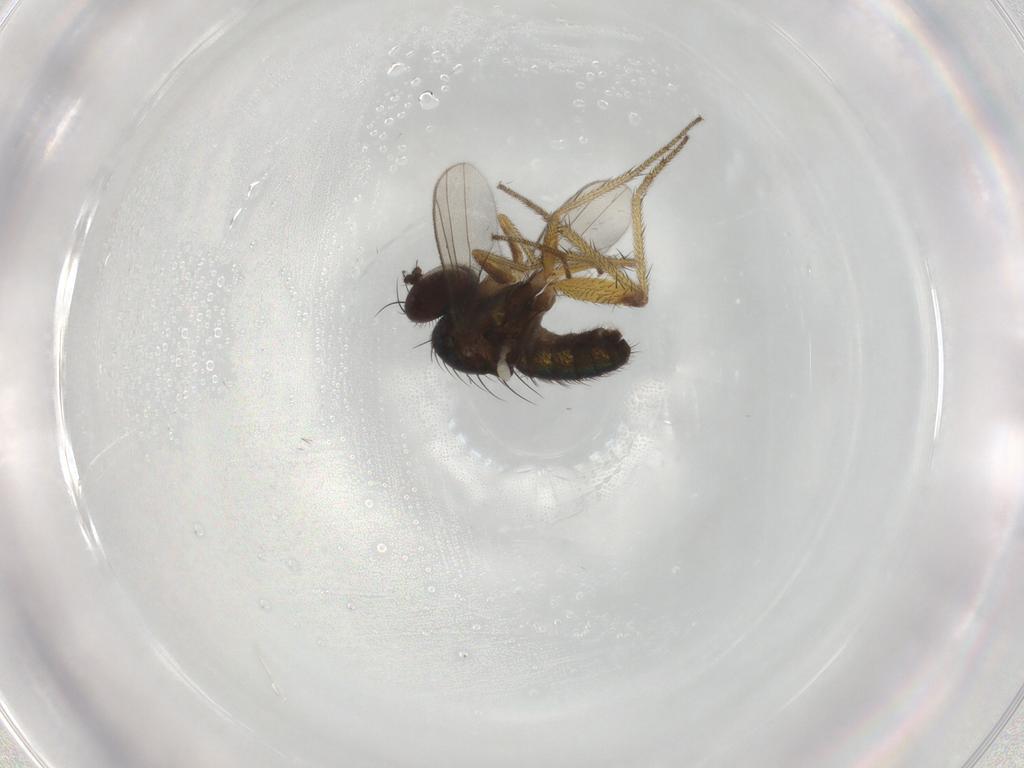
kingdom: Animalia
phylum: Arthropoda
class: Insecta
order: Diptera
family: Dolichopodidae
